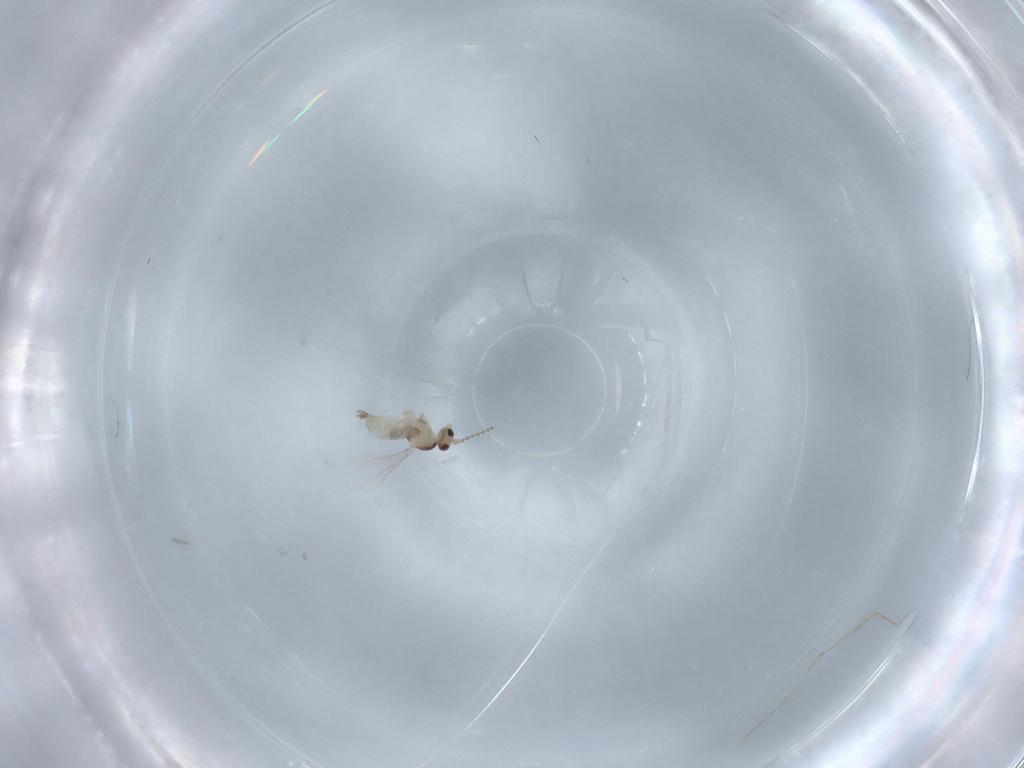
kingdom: Animalia
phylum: Arthropoda
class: Insecta
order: Diptera
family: Cecidomyiidae
